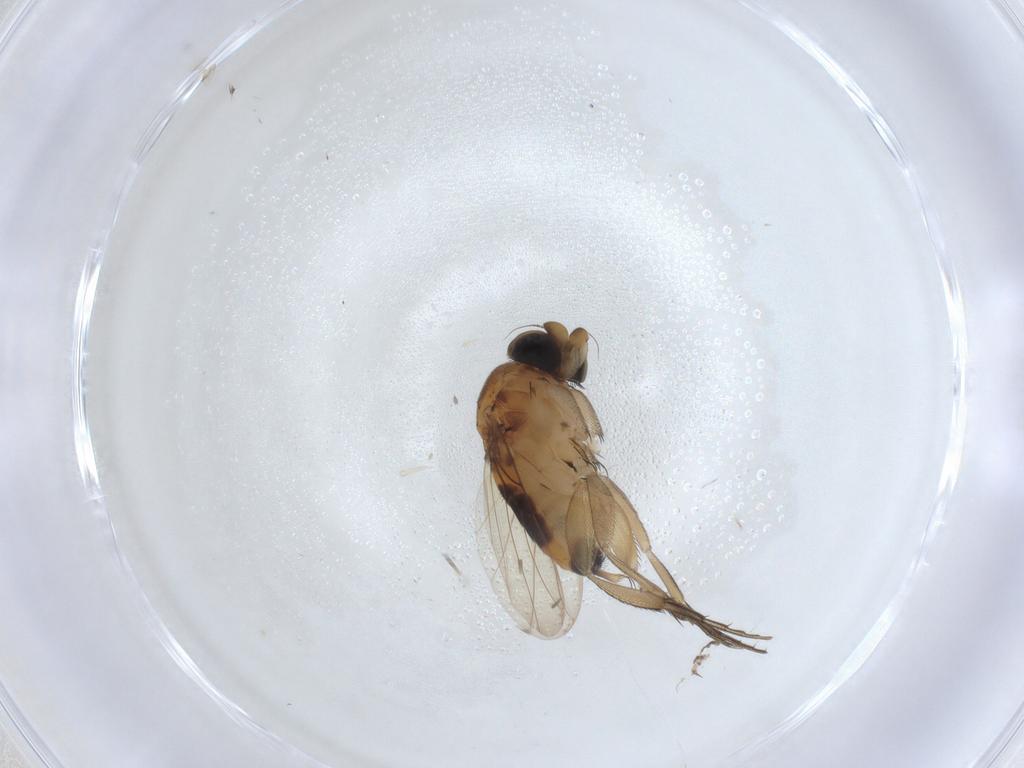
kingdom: Animalia
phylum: Arthropoda
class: Insecta
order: Diptera
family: Phoridae
